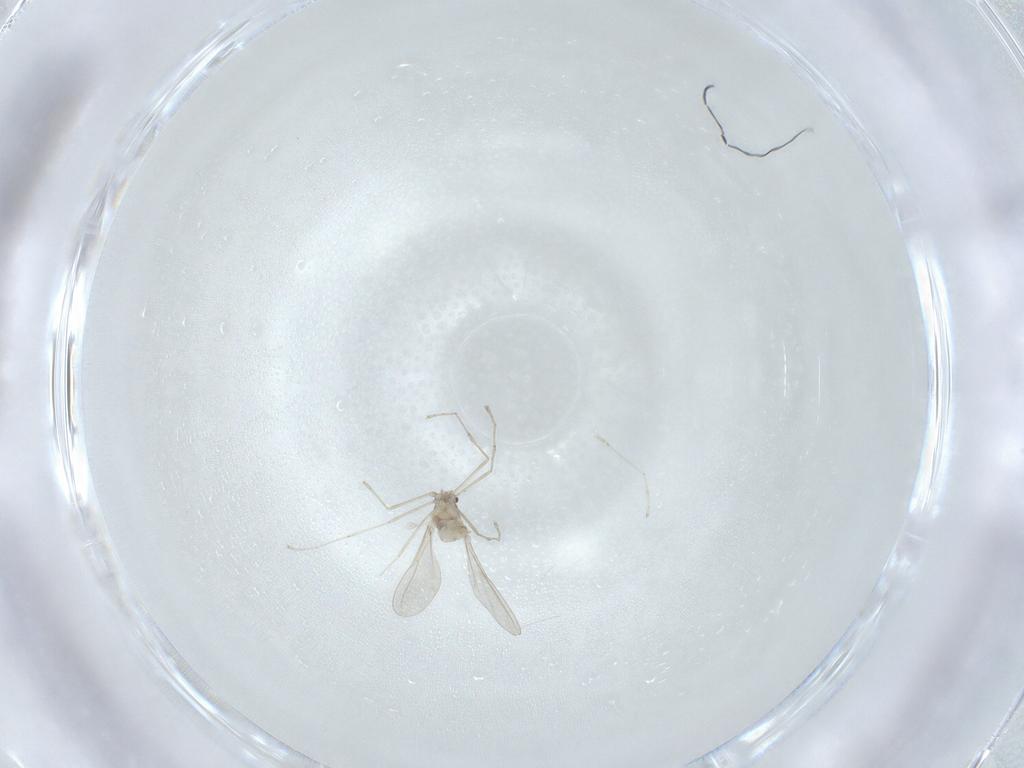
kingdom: Animalia
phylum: Arthropoda
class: Insecta
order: Diptera
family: Cecidomyiidae
